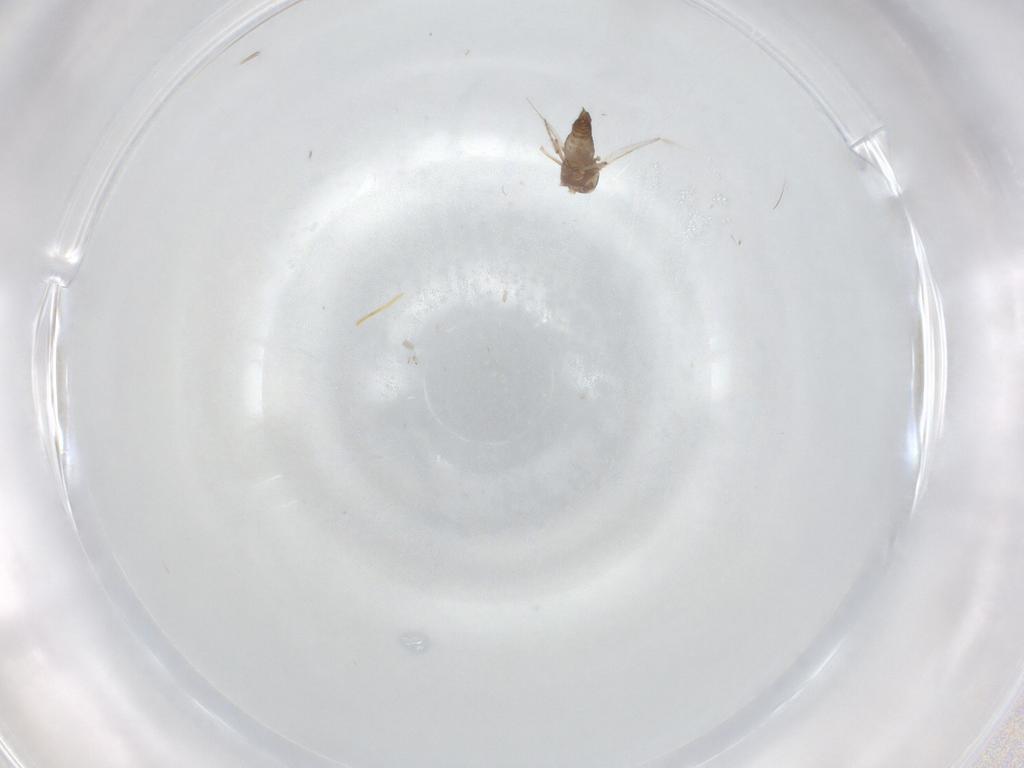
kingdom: Animalia
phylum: Arthropoda
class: Insecta
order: Diptera
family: Ceratopogonidae
